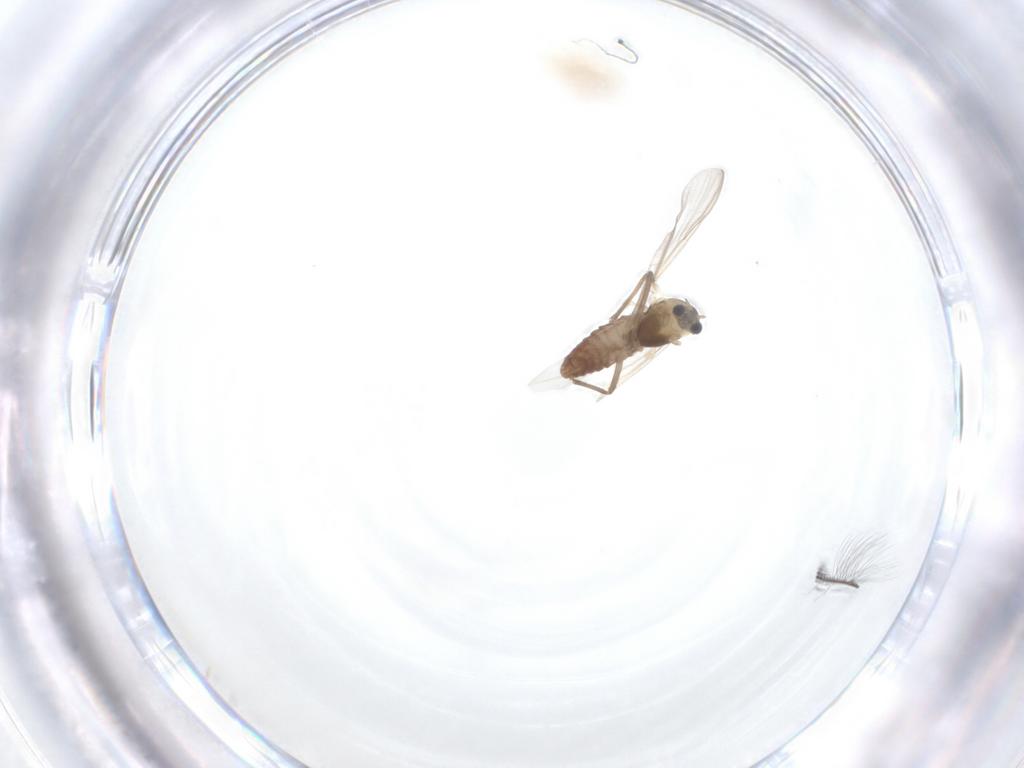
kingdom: Animalia
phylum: Arthropoda
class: Insecta
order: Diptera
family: Chironomidae
